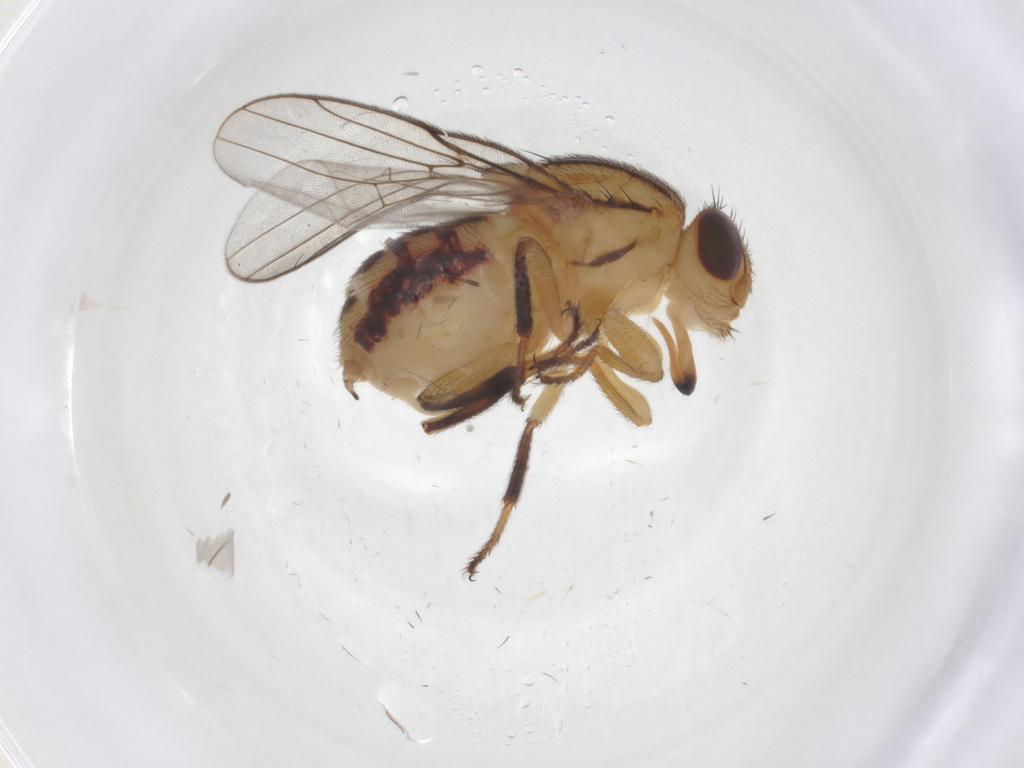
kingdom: Animalia
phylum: Arthropoda
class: Insecta
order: Diptera
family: Chloropidae
